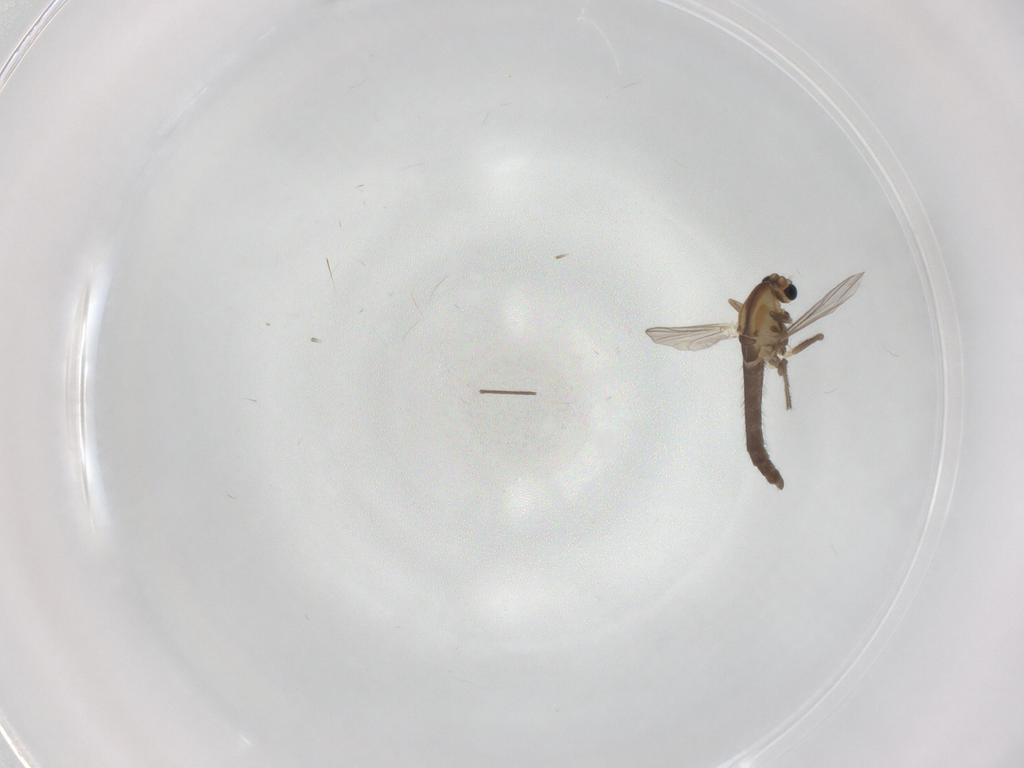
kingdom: Animalia
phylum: Arthropoda
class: Insecta
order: Diptera
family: Chironomidae
